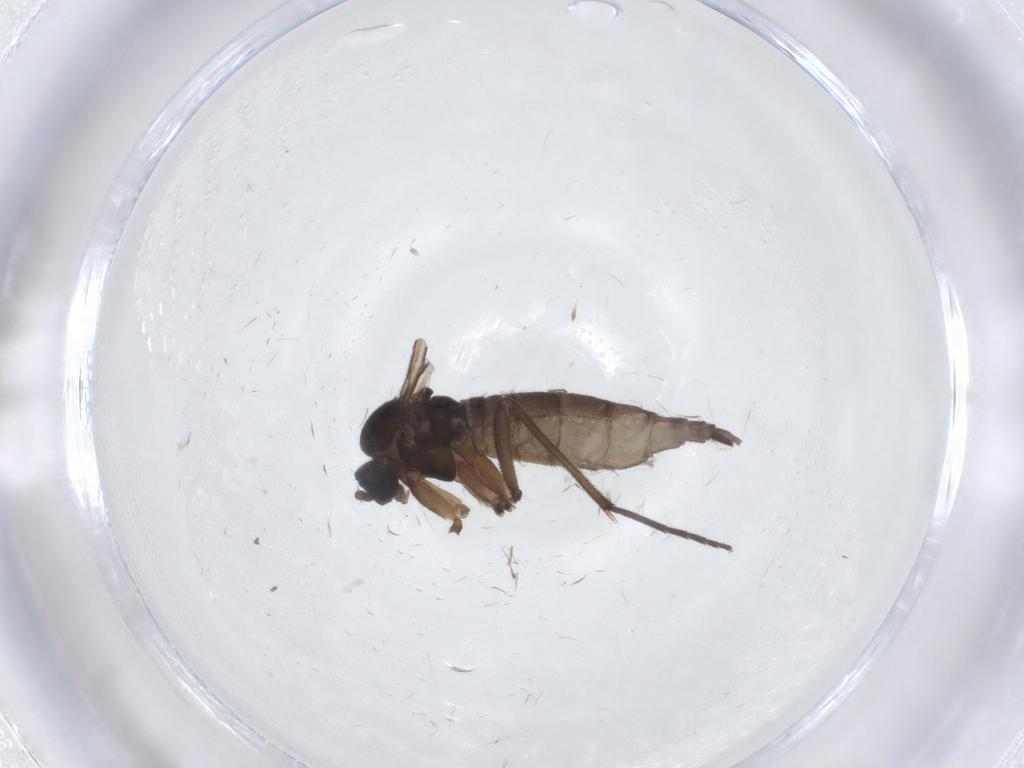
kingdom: Animalia
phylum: Arthropoda
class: Insecta
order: Diptera
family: Sciaridae
